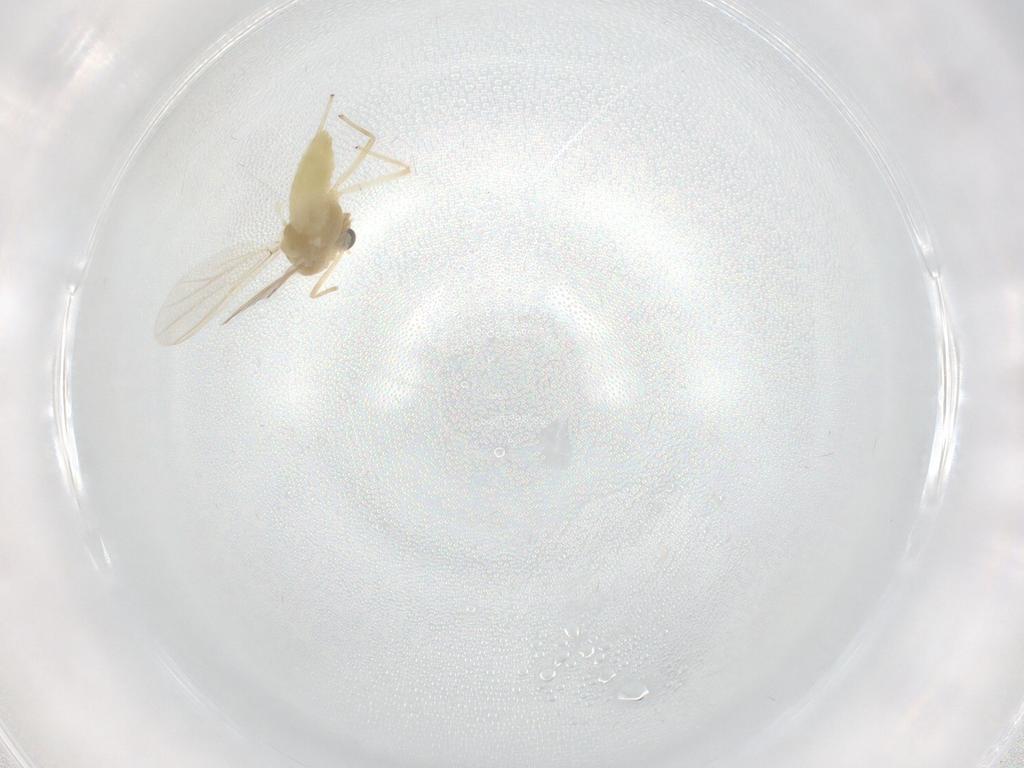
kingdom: Animalia
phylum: Arthropoda
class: Insecta
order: Diptera
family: Chironomidae
